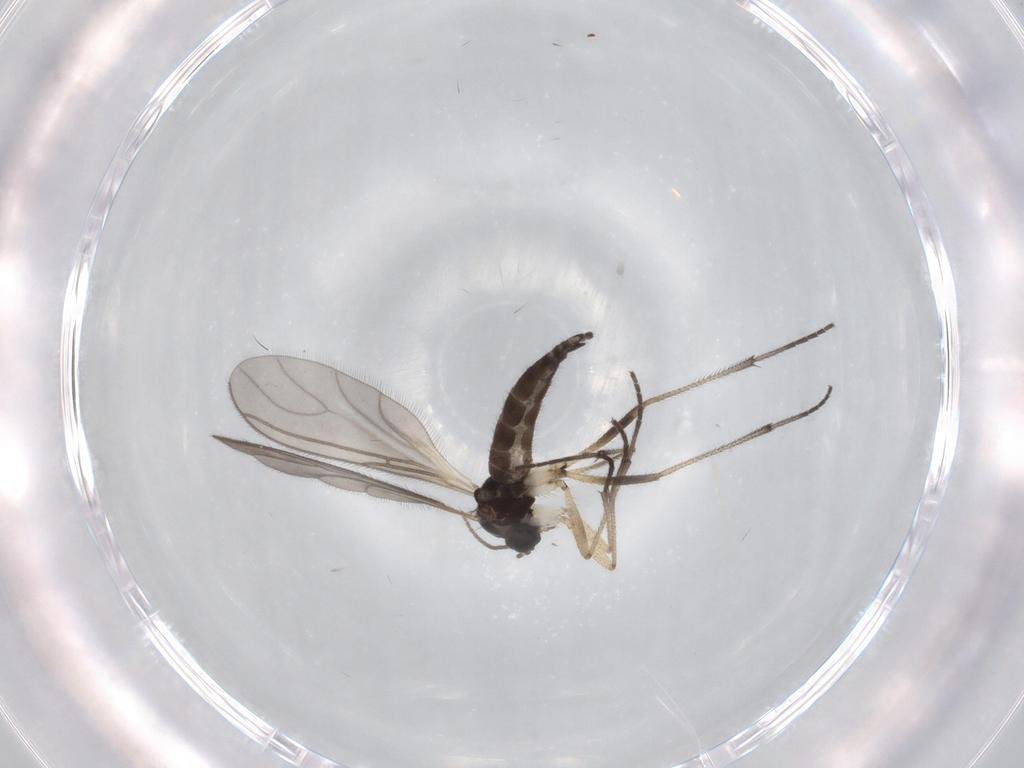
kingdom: Animalia
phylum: Arthropoda
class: Insecta
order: Diptera
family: Sciaridae
